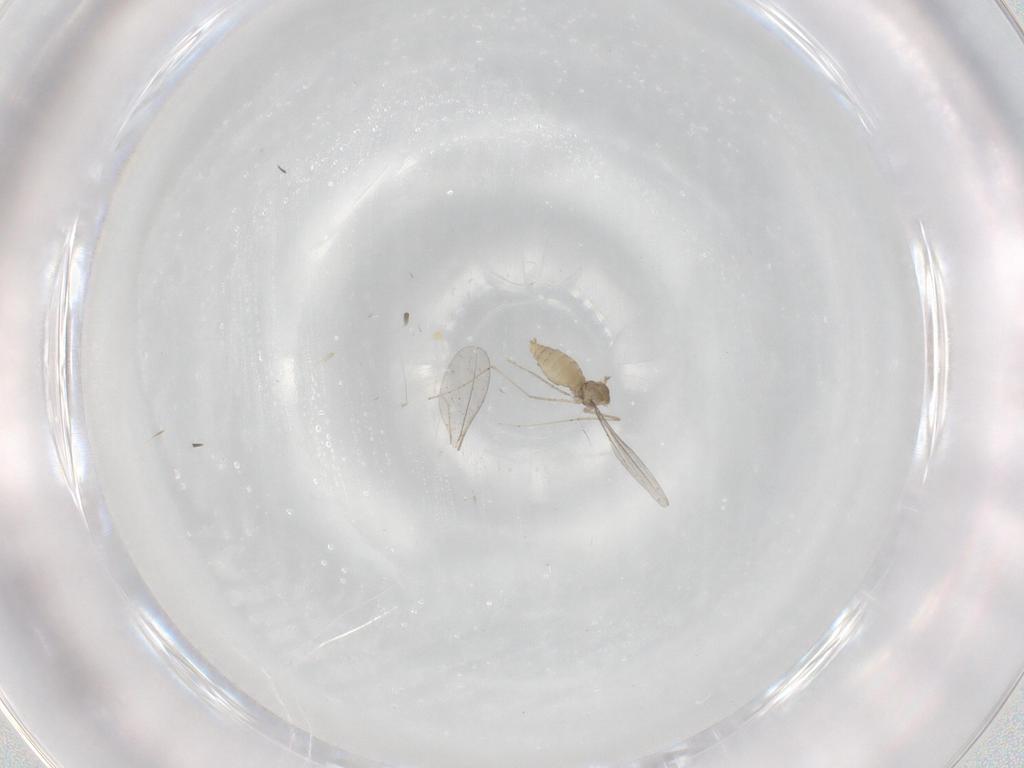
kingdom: Animalia
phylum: Arthropoda
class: Insecta
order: Diptera
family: Cecidomyiidae
